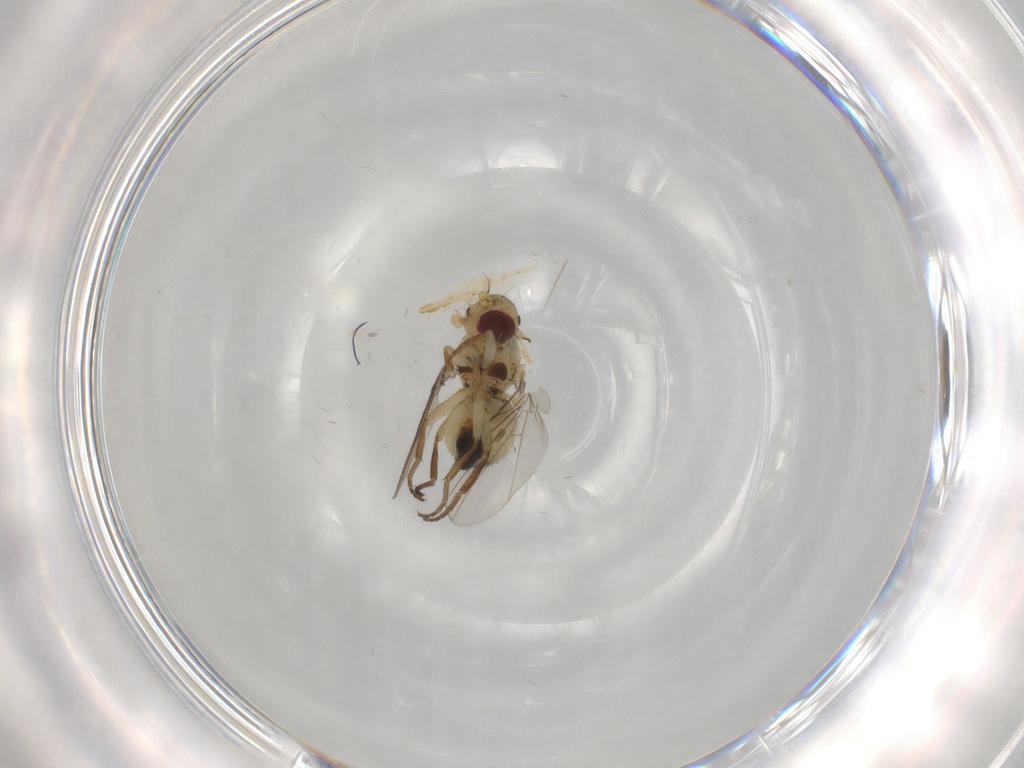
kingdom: Animalia
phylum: Arthropoda
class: Insecta
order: Diptera
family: Agromyzidae
